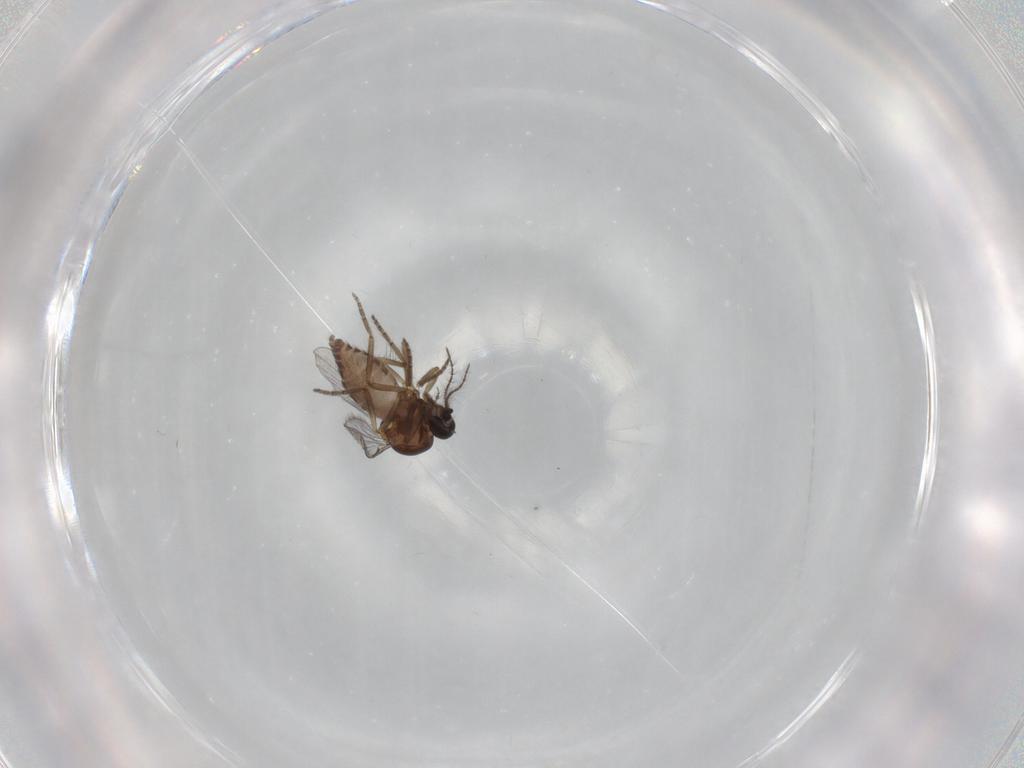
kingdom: Animalia
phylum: Arthropoda
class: Insecta
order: Diptera
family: Ceratopogonidae
